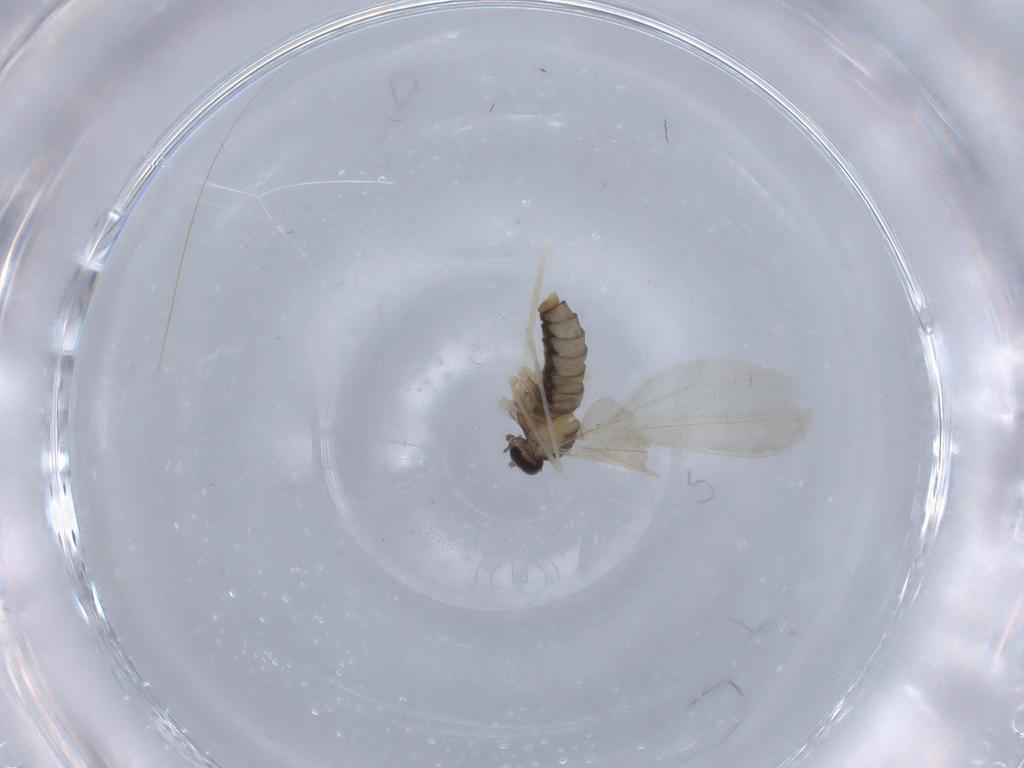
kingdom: Animalia
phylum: Arthropoda
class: Insecta
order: Diptera
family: Cecidomyiidae
